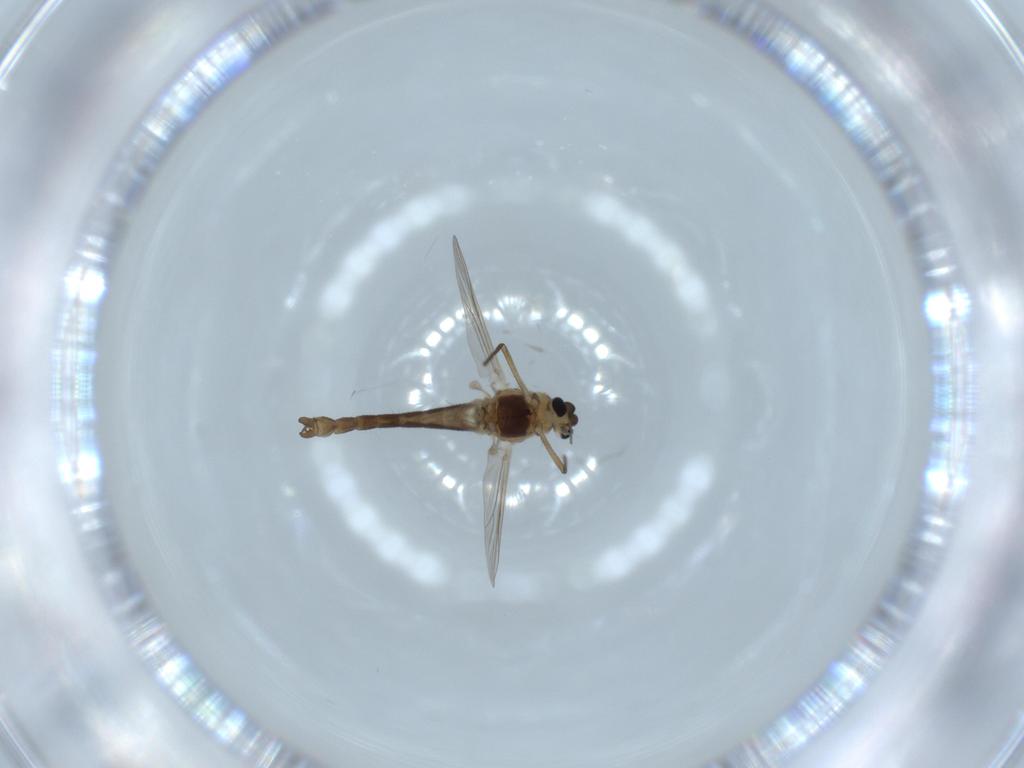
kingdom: Animalia
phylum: Arthropoda
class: Insecta
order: Diptera
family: Chironomidae
